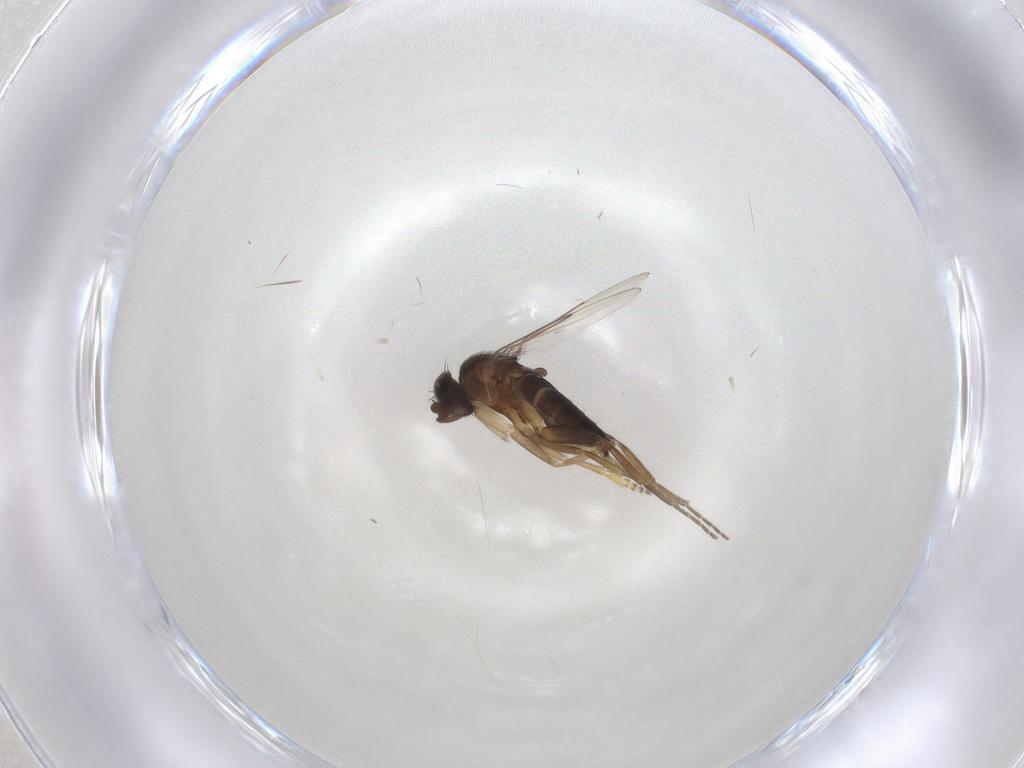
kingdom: Animalia
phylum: Arthropoda
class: Insecta
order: Diptera
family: Phoridae
